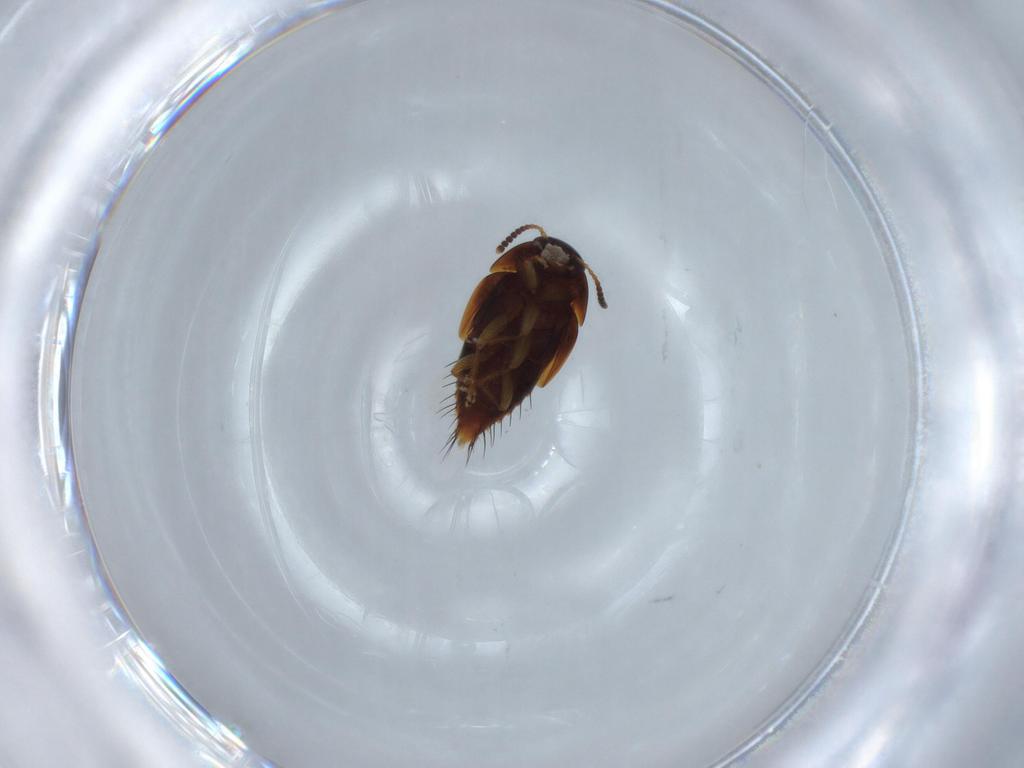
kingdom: Animalia
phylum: Arthropoda
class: Insecta
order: Coleoptera
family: Staphylinidae
